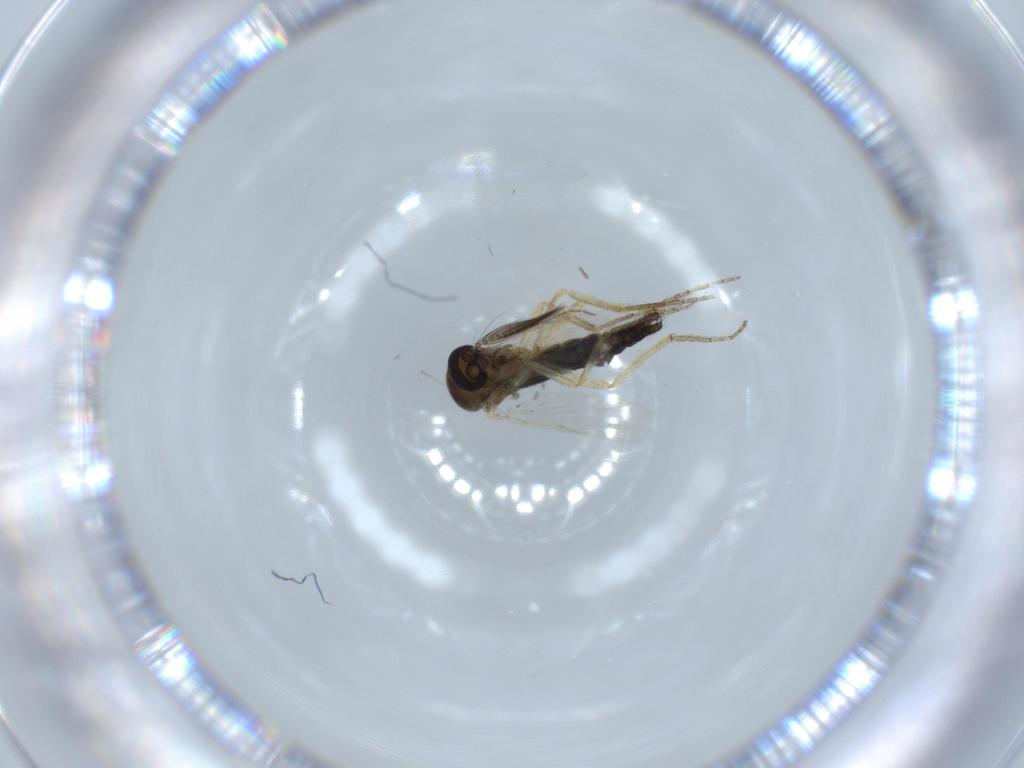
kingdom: Animalia
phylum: Arthropoda
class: Insecta
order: Diptera
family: Ceratopogonidae
